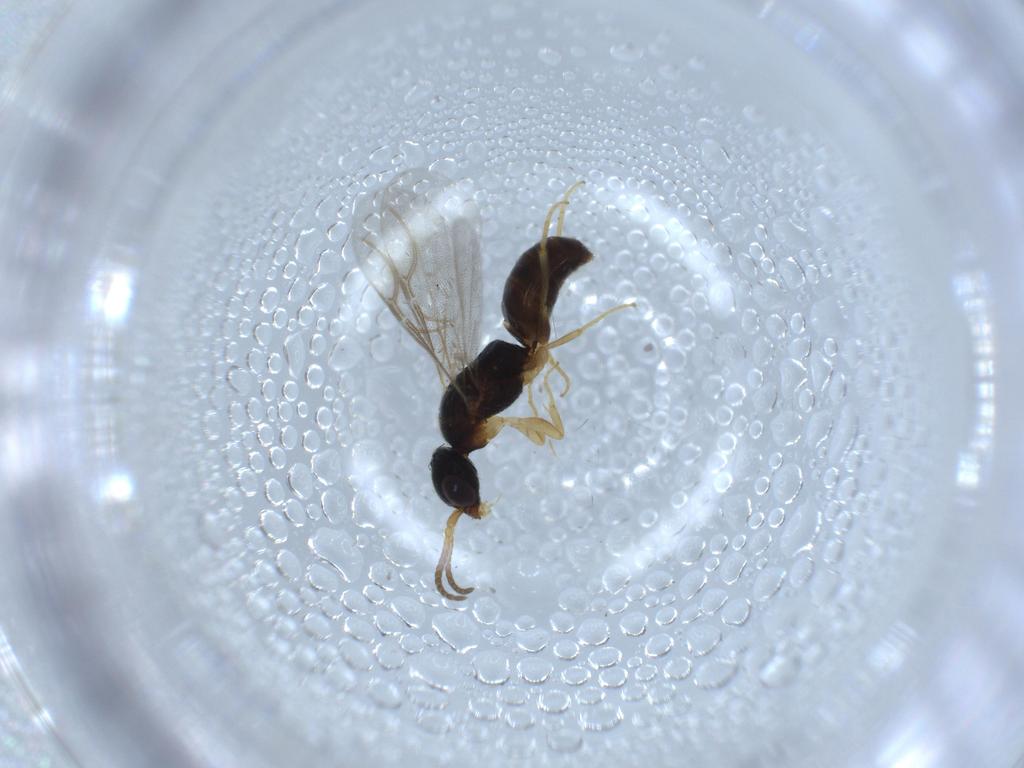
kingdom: Animalia
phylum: Arthropoda
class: Insecta
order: Hymenoptera
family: Bethylidae
